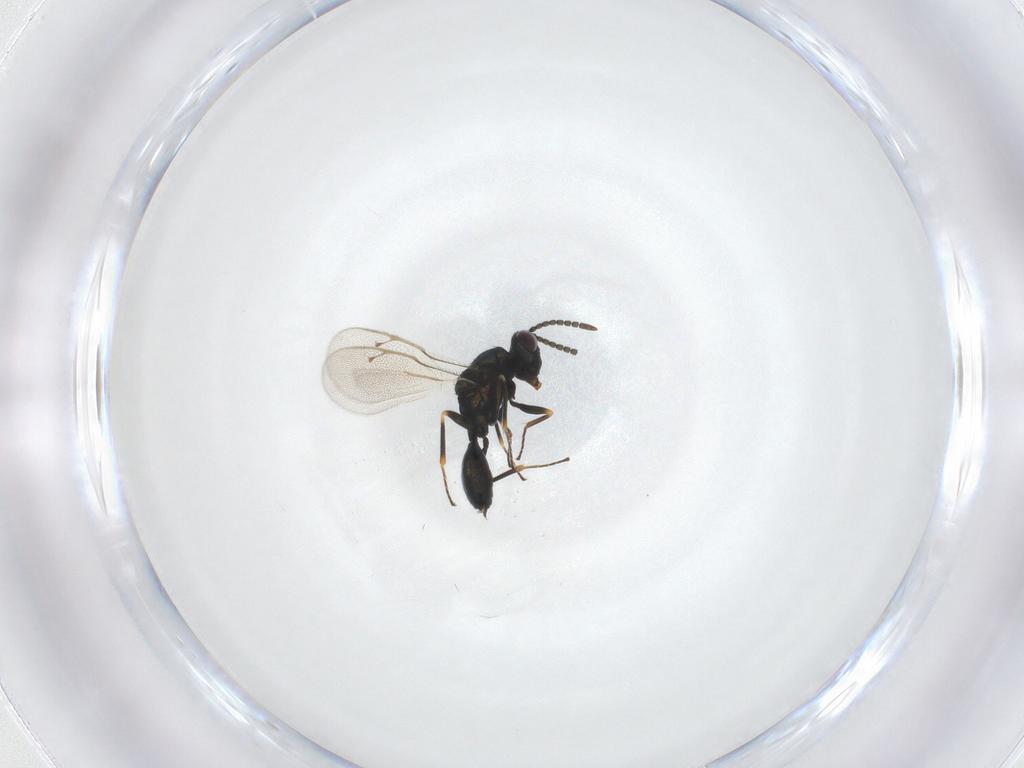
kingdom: Animalia
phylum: Arthropoda
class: Insecta
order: Hymenoptera
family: Pteromalidae
